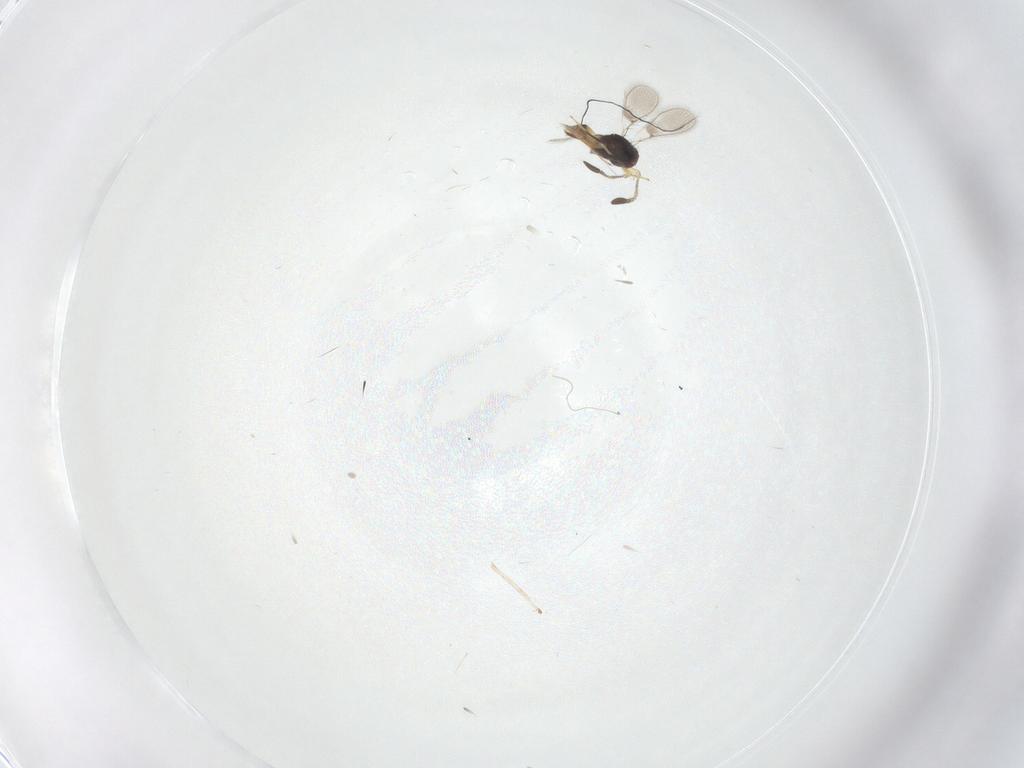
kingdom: Animalia
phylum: Arthropoda
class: Insecta
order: Hymenoptera
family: Mymaridae
